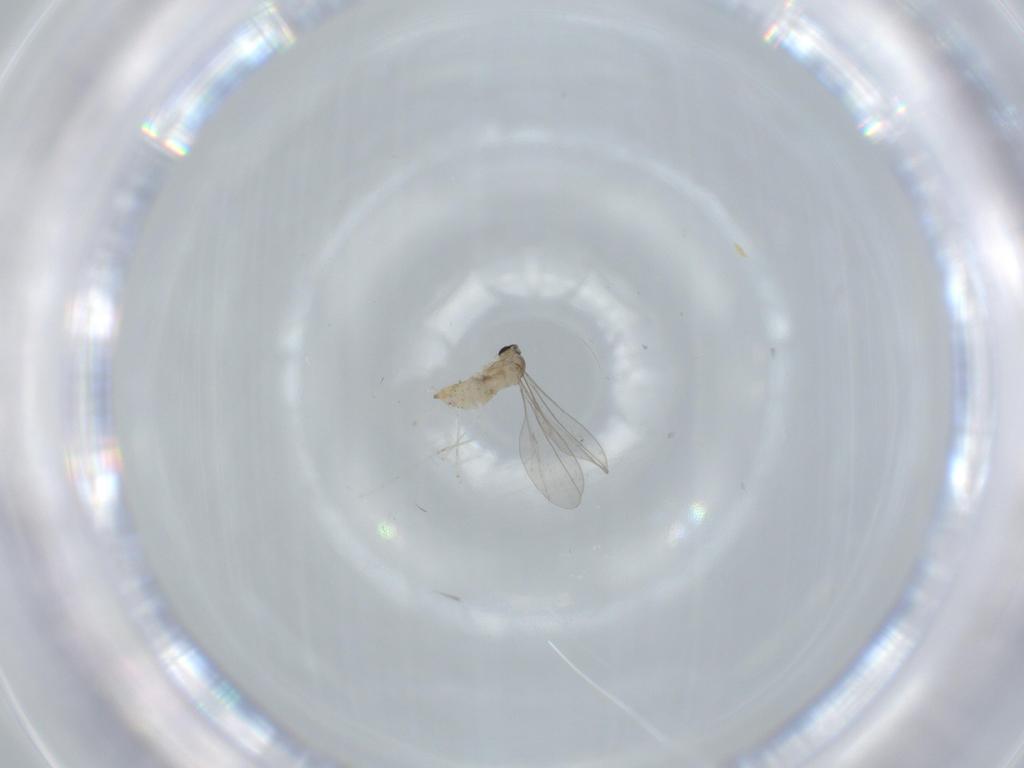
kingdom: Animalia
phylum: Arthropoda
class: Insecta
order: Diptera
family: Cecidomyiidae
